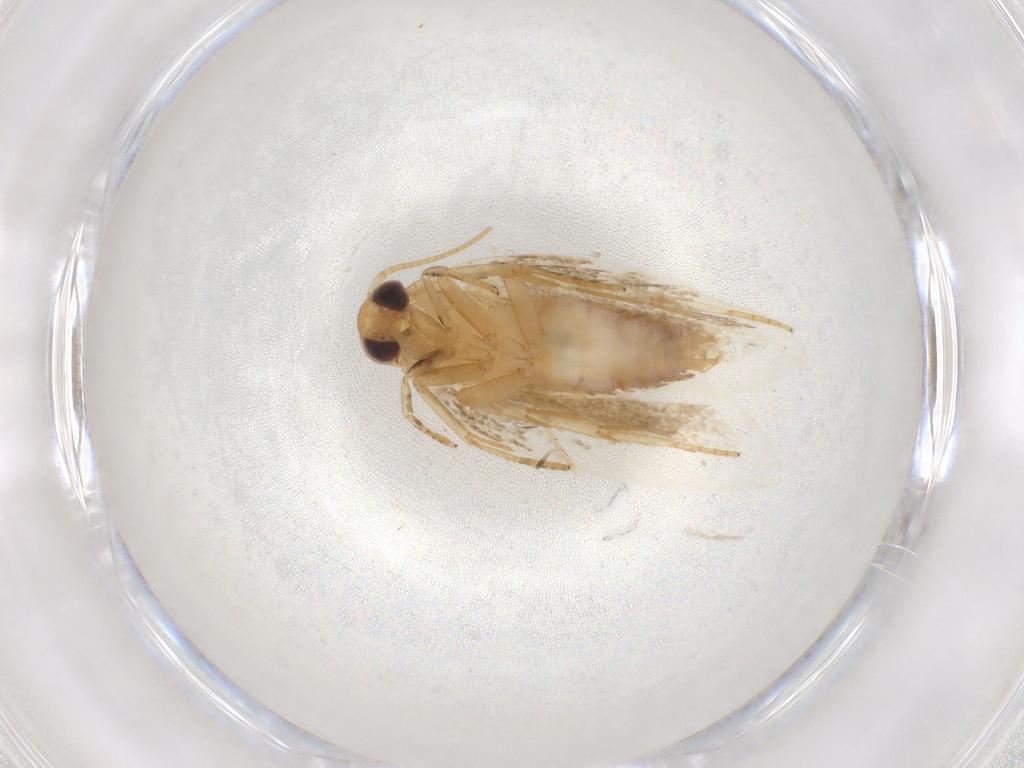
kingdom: Animalia
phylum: Arthropoda
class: Insecta
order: Lepidoptera
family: Depressariidae
